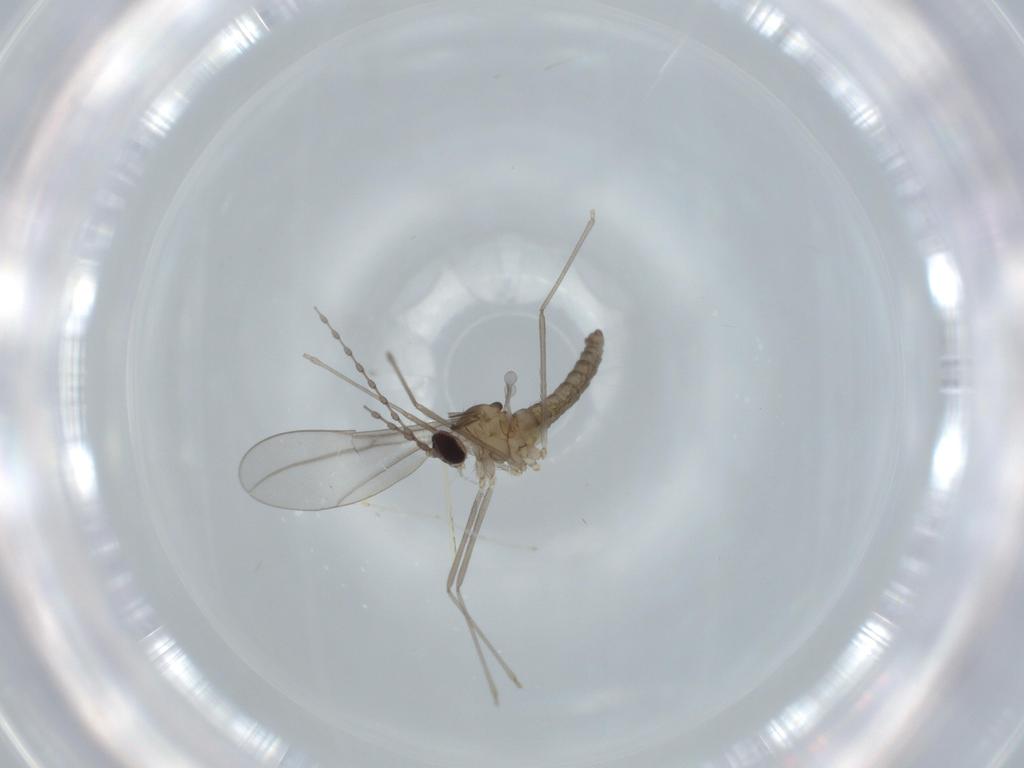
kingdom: Animalia
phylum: Arthropoda
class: Insecta
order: Diptera
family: Cecidomyiidae
